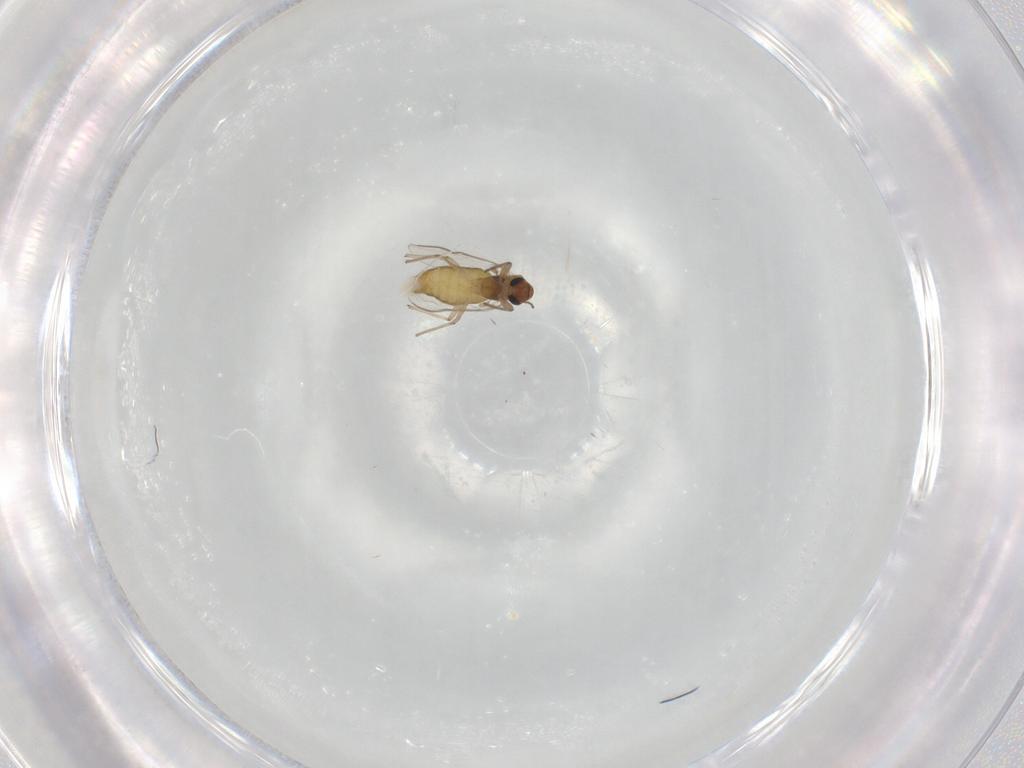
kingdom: Animalia
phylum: Arthropoda
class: Insecta
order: Diptera
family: Chironomidae
